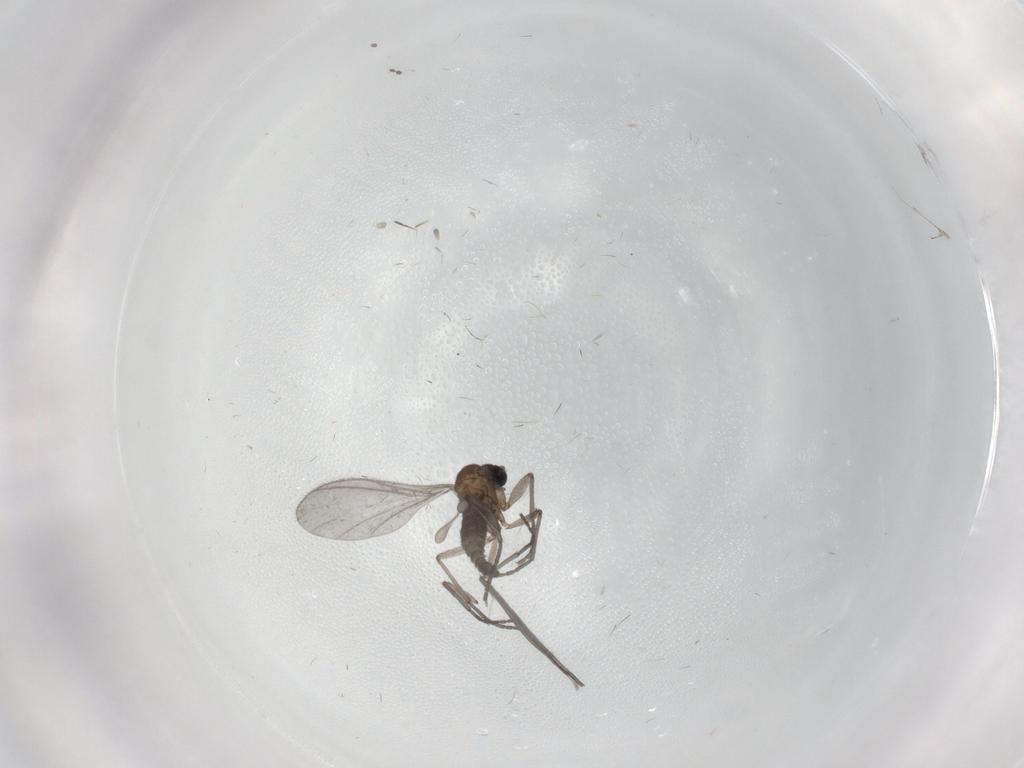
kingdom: Animalia
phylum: Arthropoda
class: Insecta
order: Diptera
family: Sciaridae
